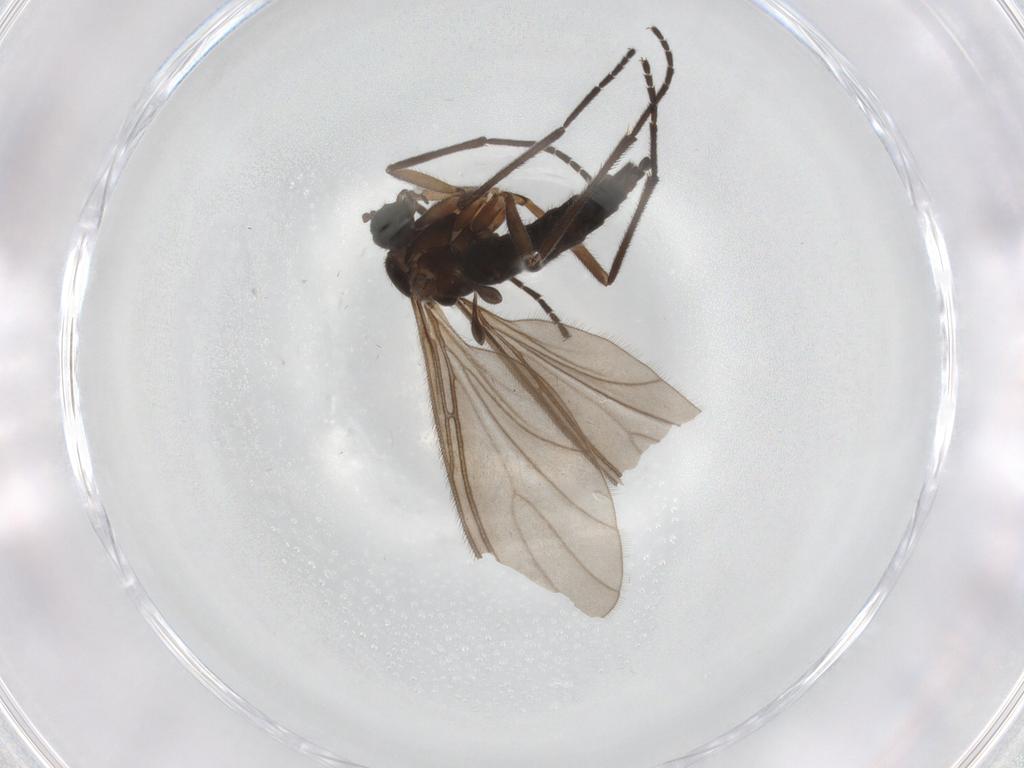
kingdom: Animalia
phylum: Arthropoda
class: Insecta
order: Diptera
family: Sciaridae
